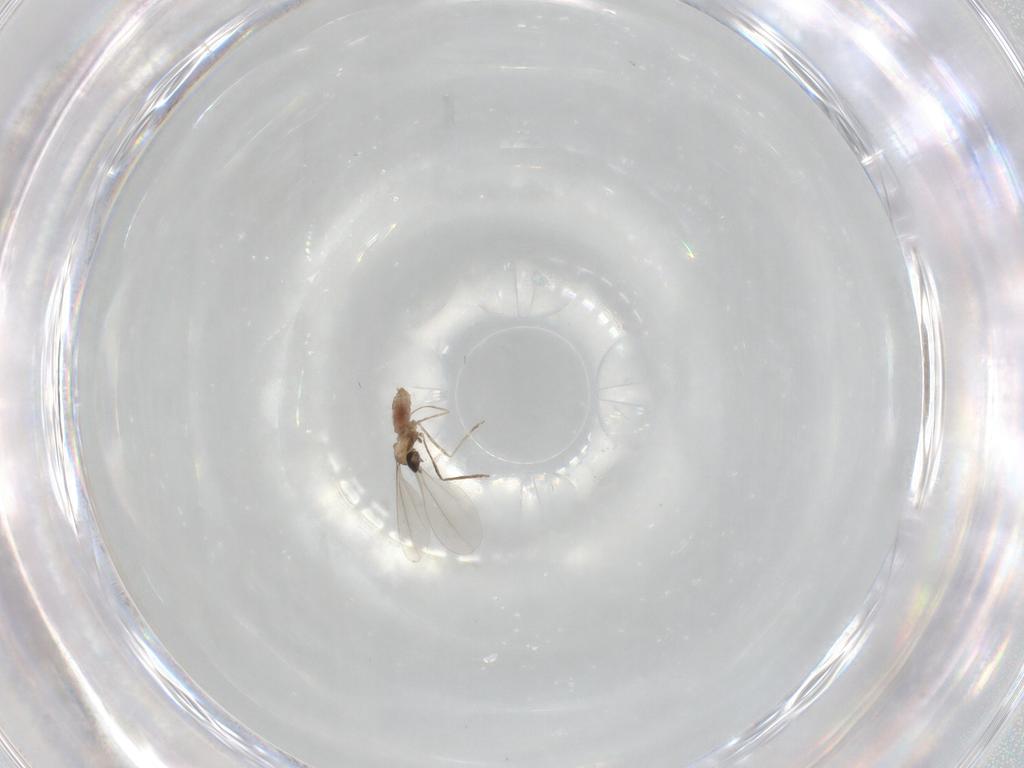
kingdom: Animalia
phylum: Arthropoda
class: Insecta
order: Diptera
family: Cecidomyiidae
